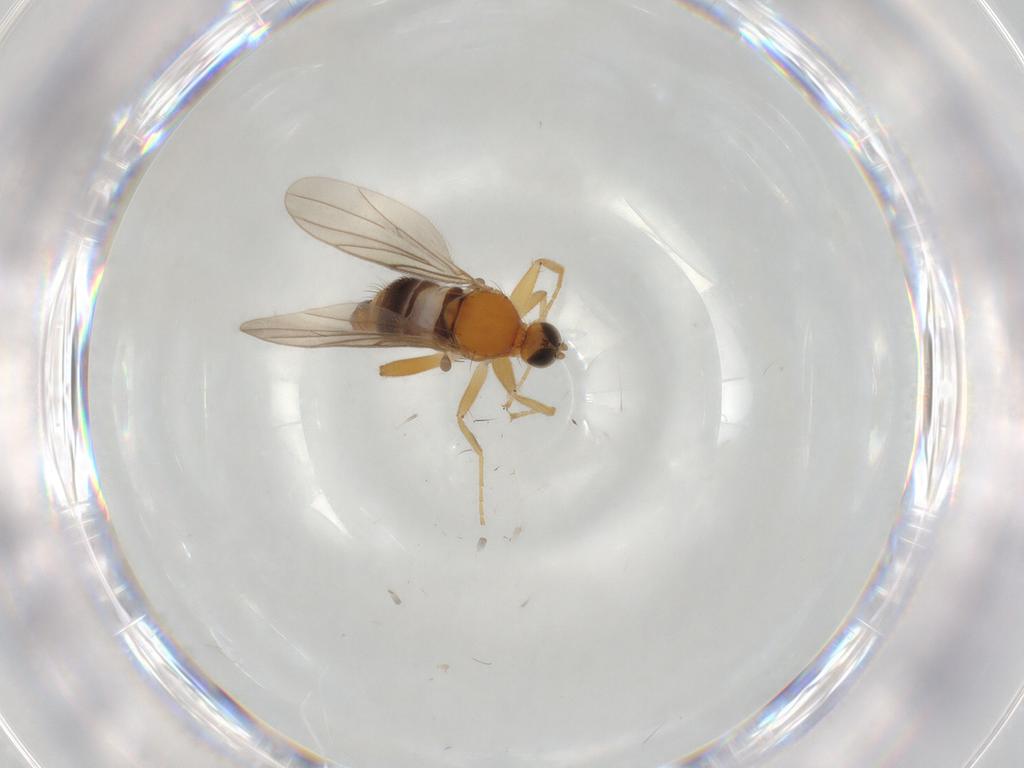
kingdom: Animalia
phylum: Arthropoda
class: Insecta
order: Diptera
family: Hybotidae
